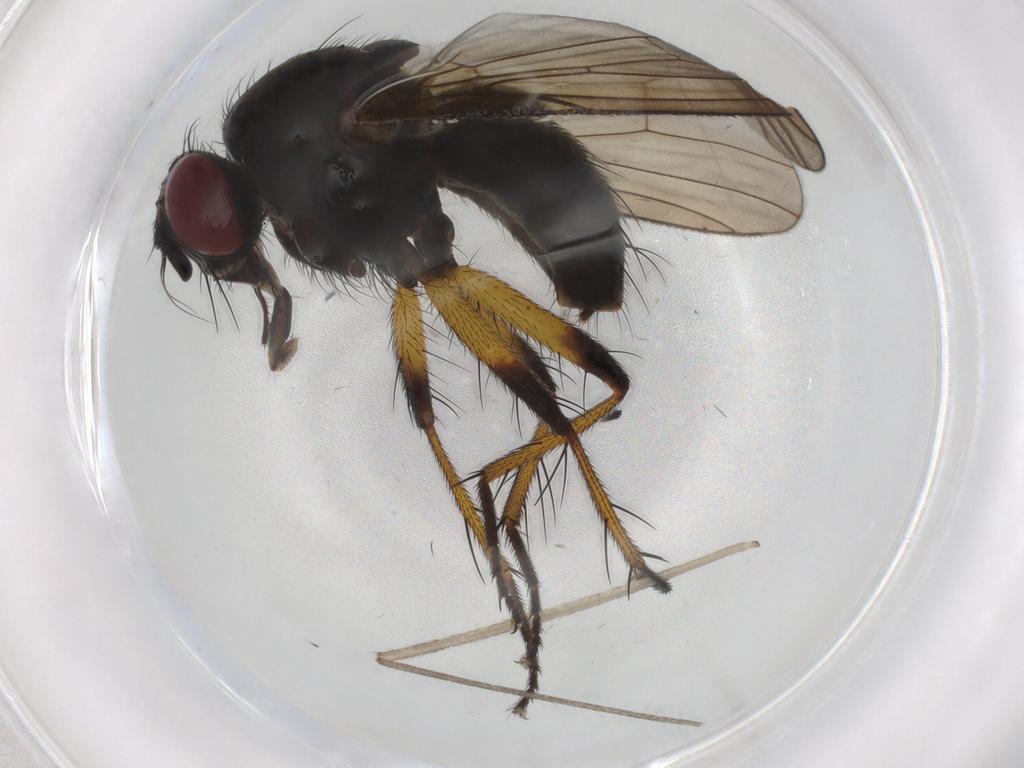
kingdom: Animalia
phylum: Arthropoda
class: Insecta
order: Diptera
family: Muscidae
